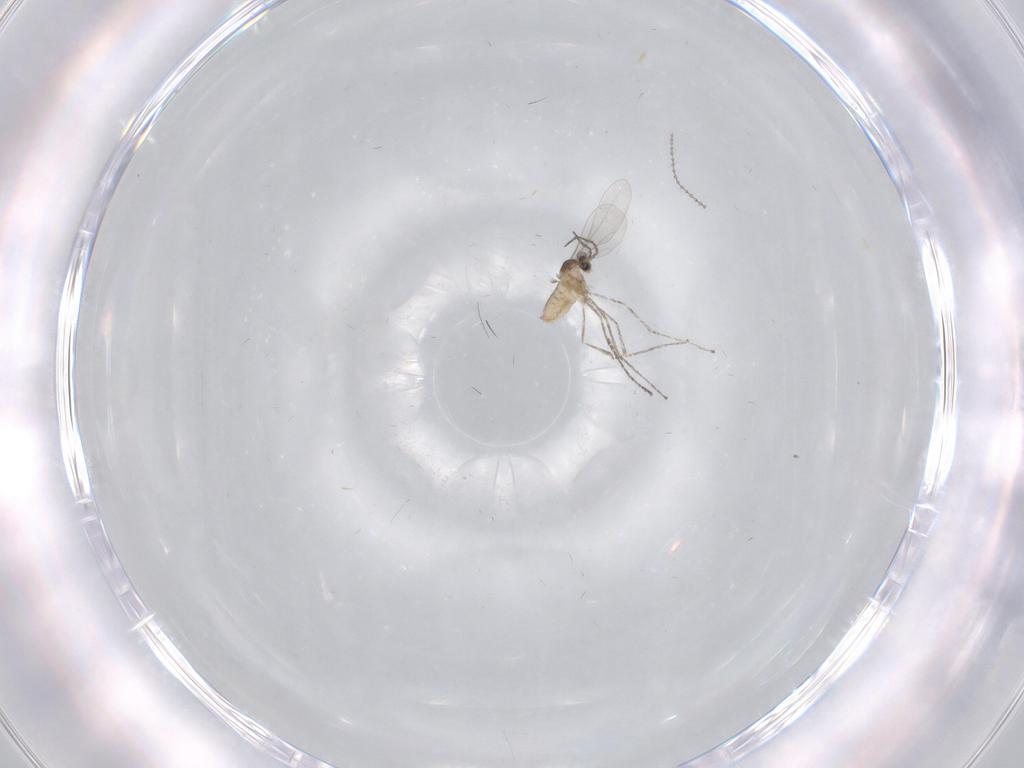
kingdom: Animalia
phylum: Arthropoda
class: Insecta
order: Diptera
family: Cecidomyiidae
